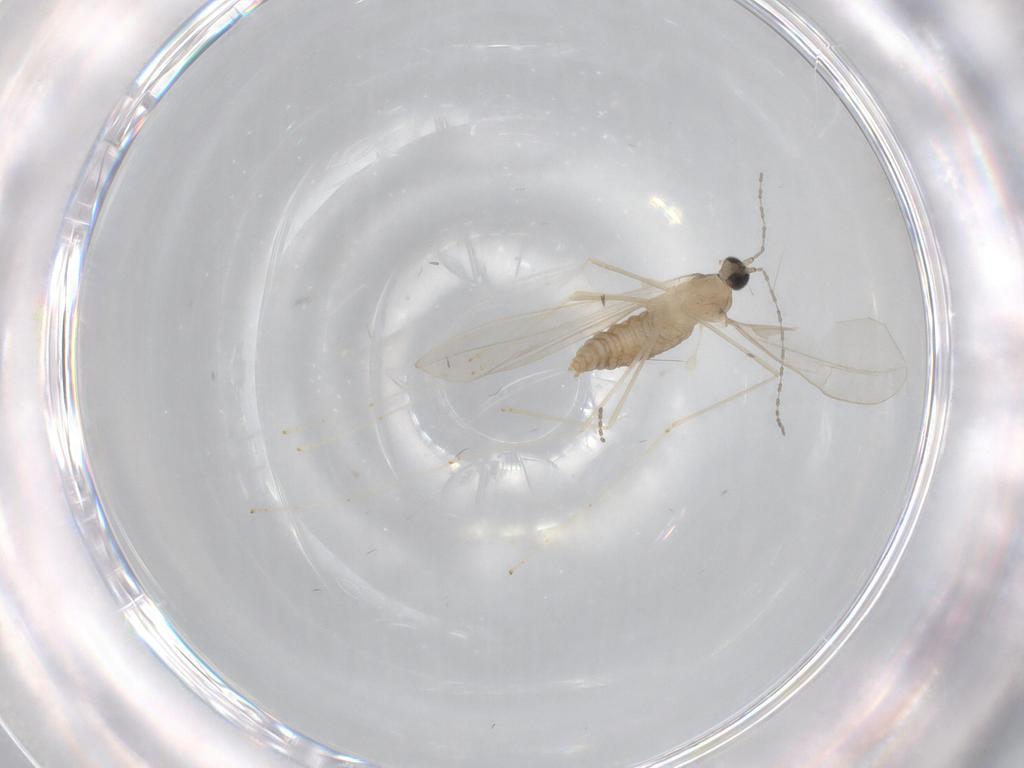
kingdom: Animalia
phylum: Arthropoda
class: Insecta
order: Diptera
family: Cecidomyiidae
